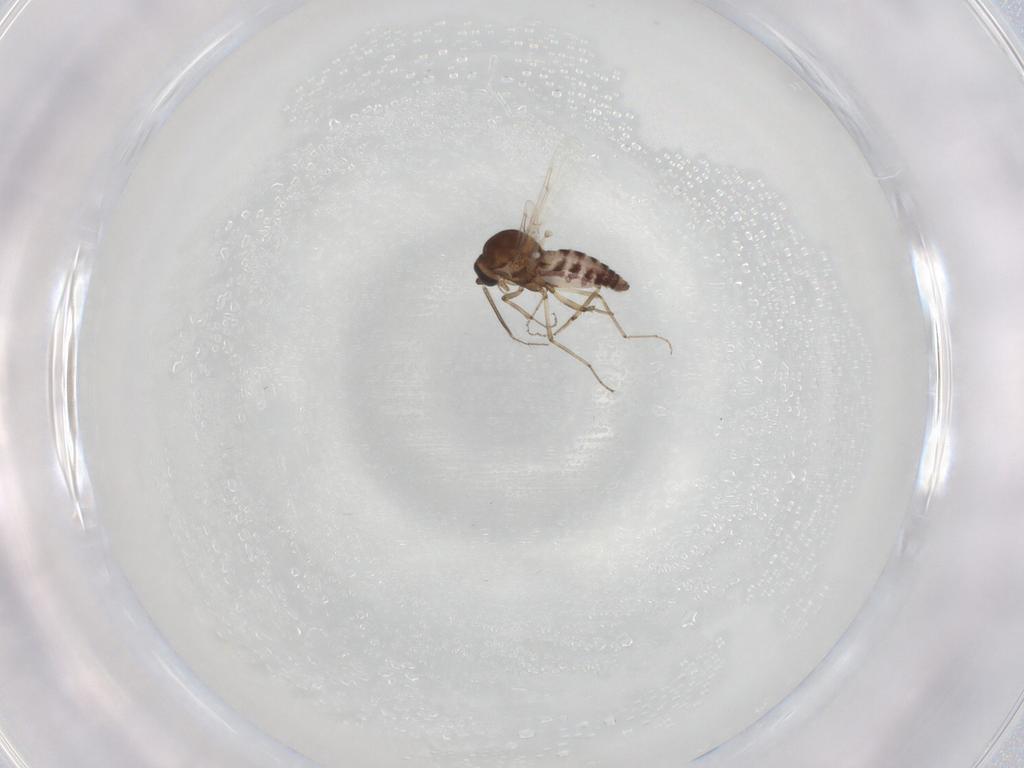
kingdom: Animalia
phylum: Arthropoda
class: Insecta
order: Diptera
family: Ceratopogonidae
